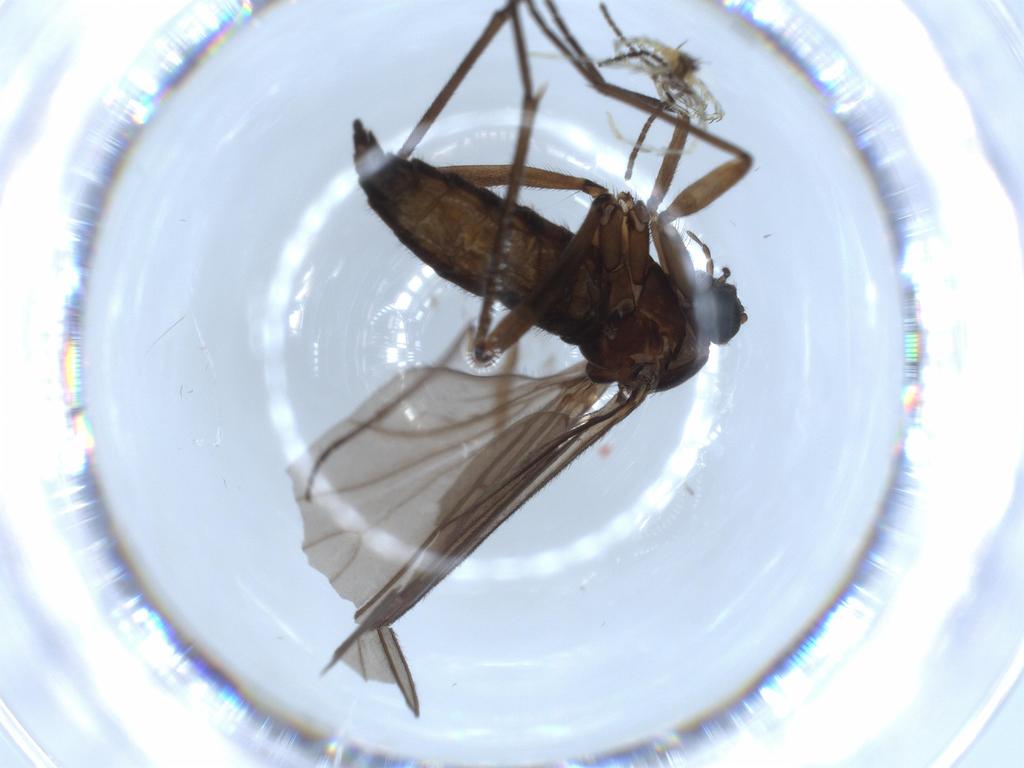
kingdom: Animalia
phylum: Arthropoda
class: Insecta
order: Diptera
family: Sciaridae
